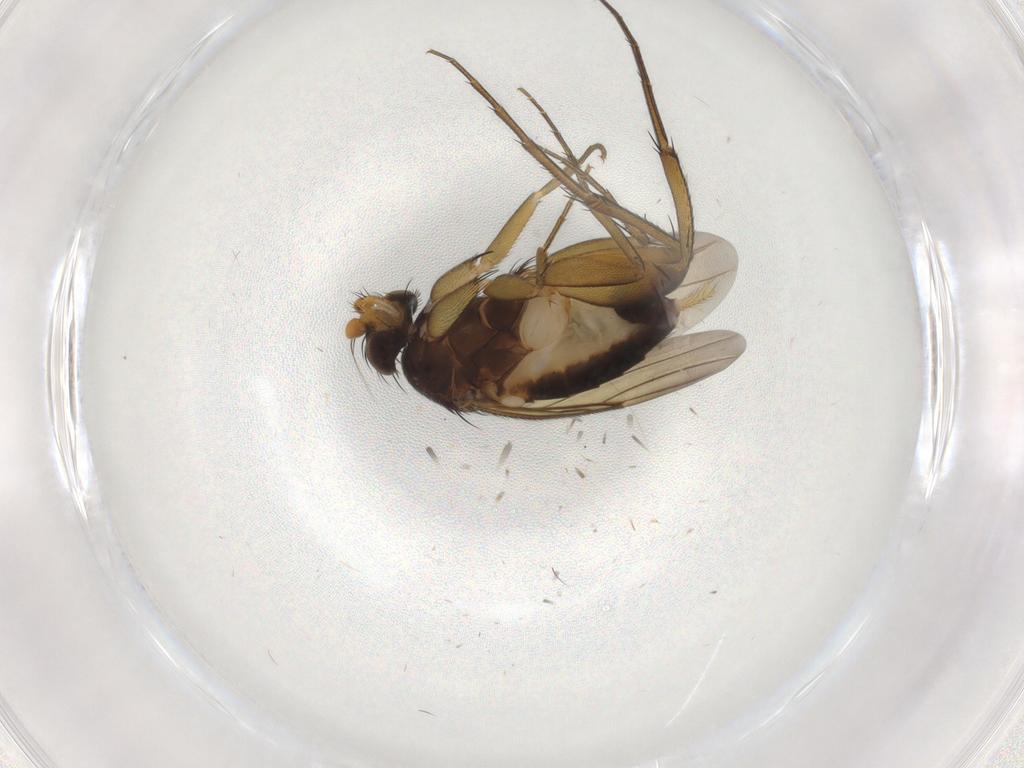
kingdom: Animalia
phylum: Arthropoda
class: Insecta
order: Diptera
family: Phoridae
